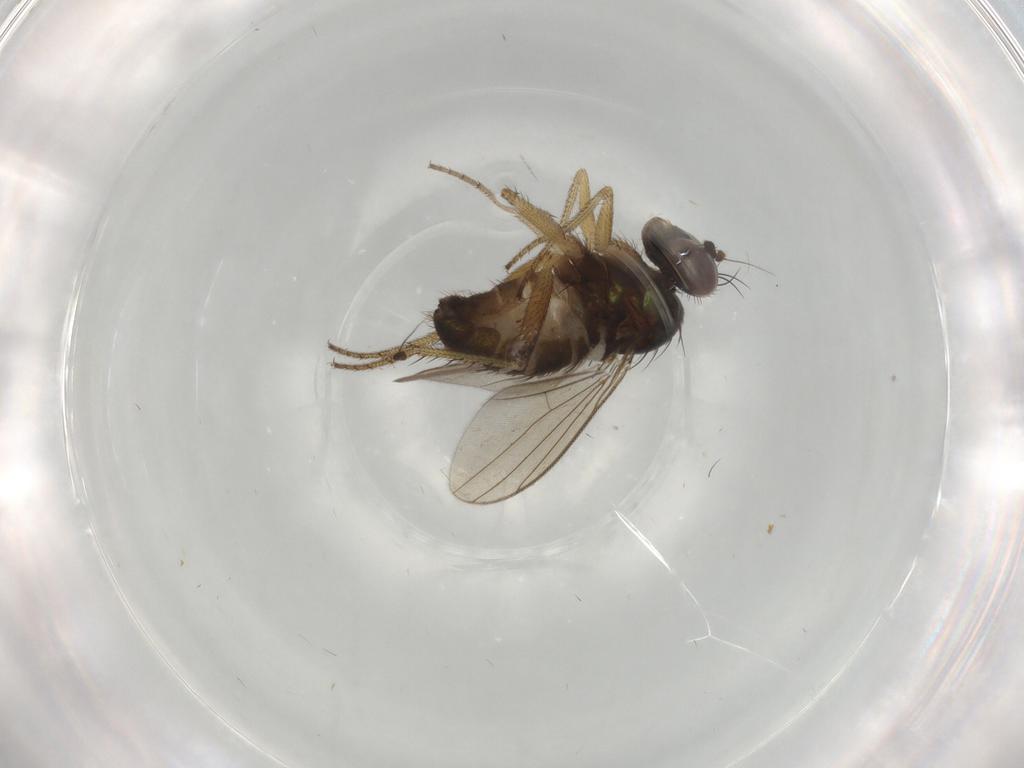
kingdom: Animalia
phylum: Arthropoda
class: Insecta
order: Diptera
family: Dolichopodidae
